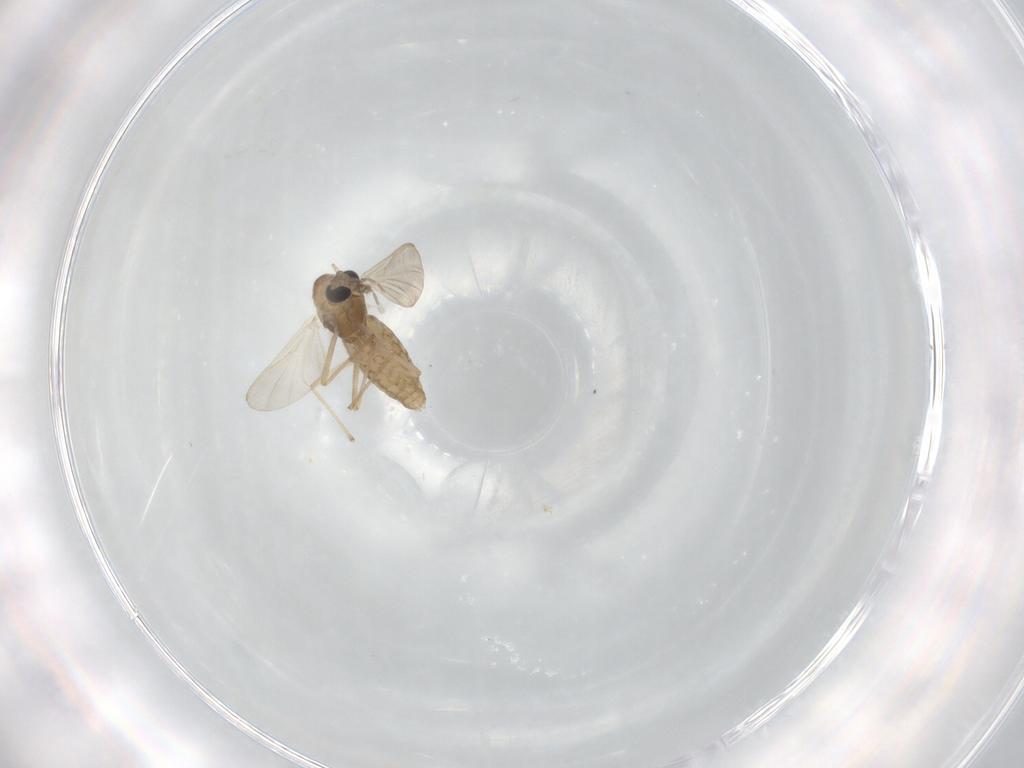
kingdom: Animalia
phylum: Arthropoda
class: Insecta
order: Diptera
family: Chironomidae
